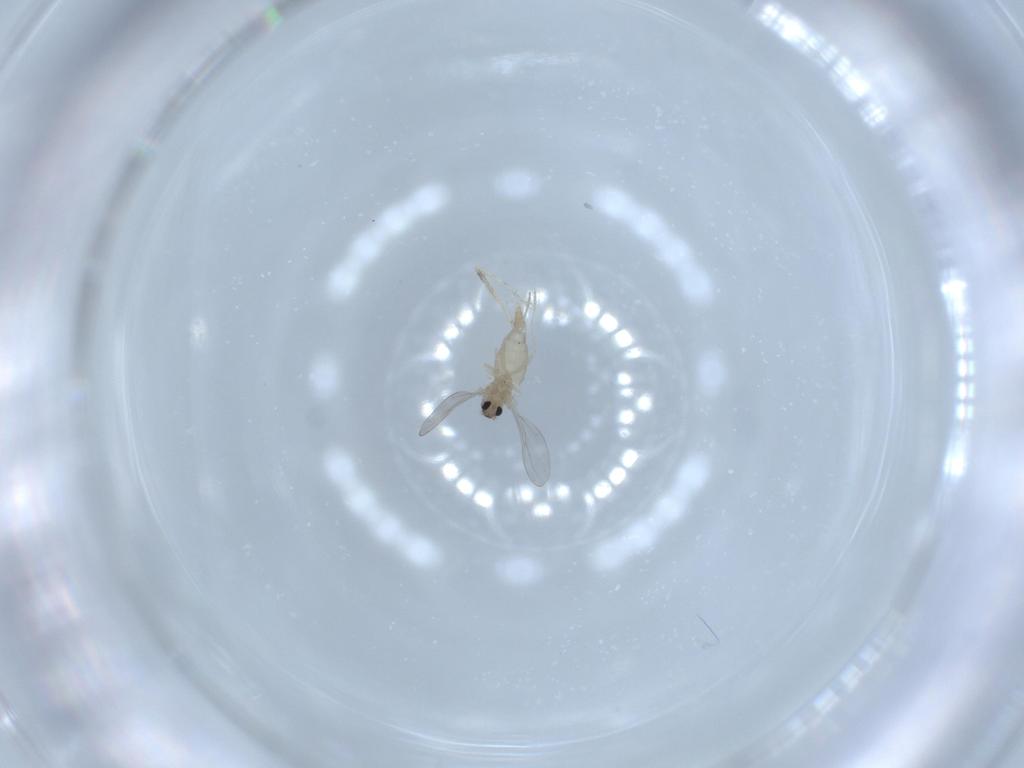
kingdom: Animalia
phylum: Arthropoda
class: Insecta
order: Diptera
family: Cecidomyiidae
